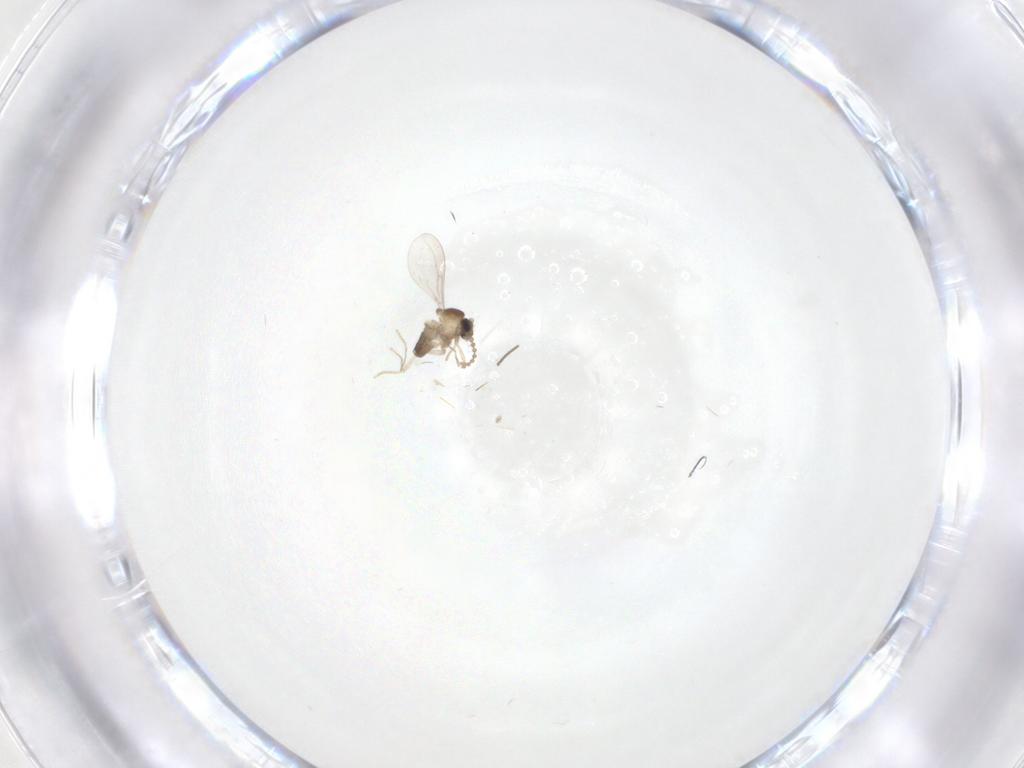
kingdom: Animalia
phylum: Arthropoda
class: Insecta
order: Diptera
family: Cecidomyiidae
